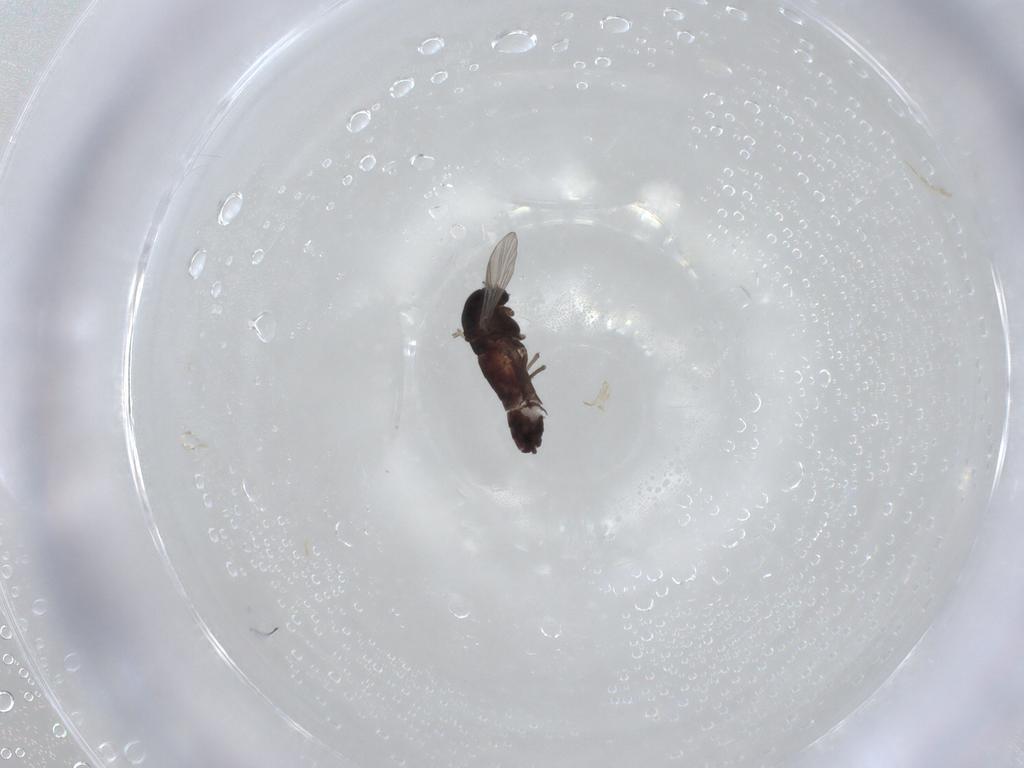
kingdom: Animalia
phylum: Arthropoda
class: Insecta
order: Diptera
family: Chironomidae
